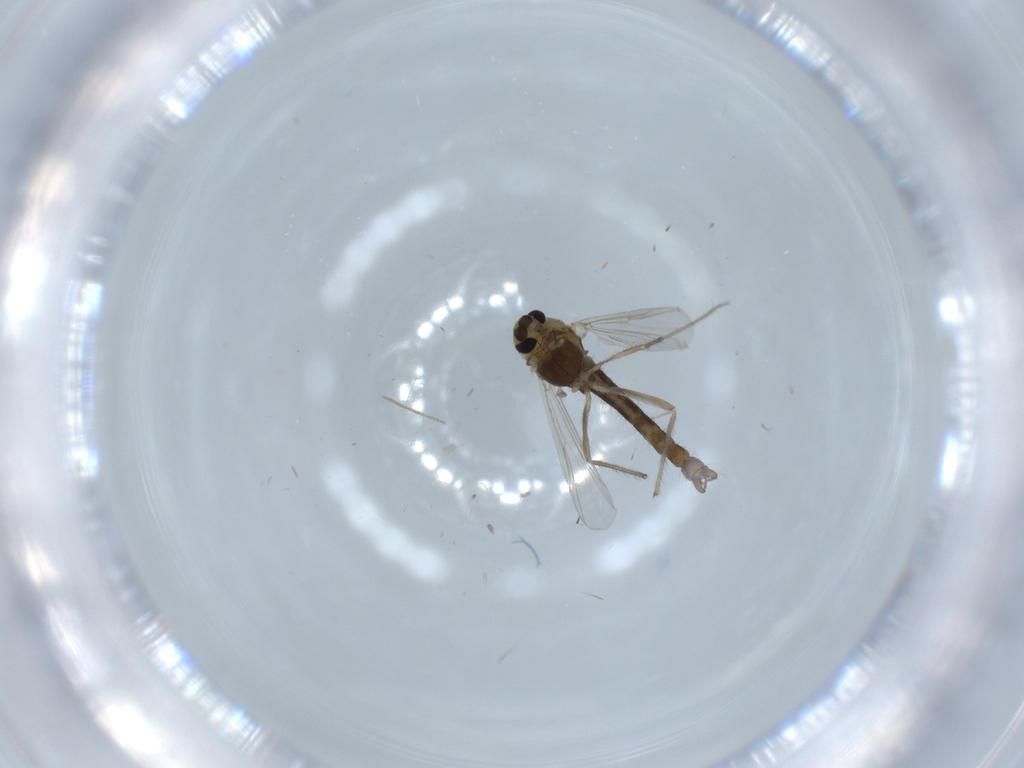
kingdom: Animalia
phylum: Arthropoda
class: Insecta
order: Diptera
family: Chironomidae
